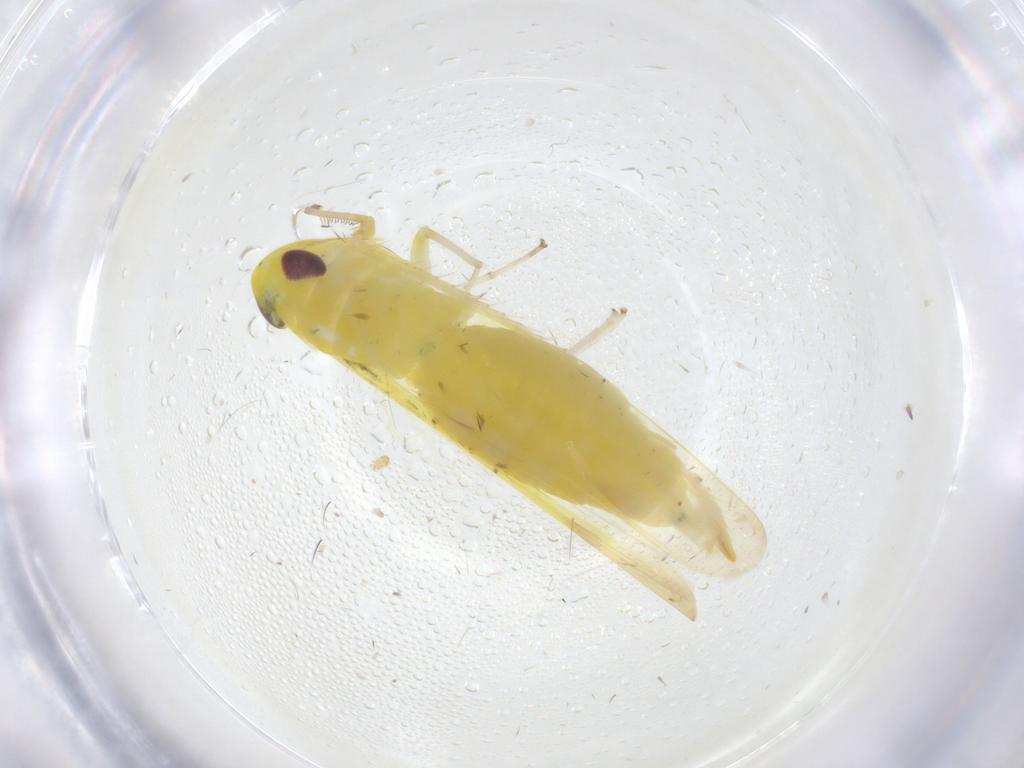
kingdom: Animalia
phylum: Arthropoda
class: Insecta
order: Hemiptera
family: Cicadellidae
